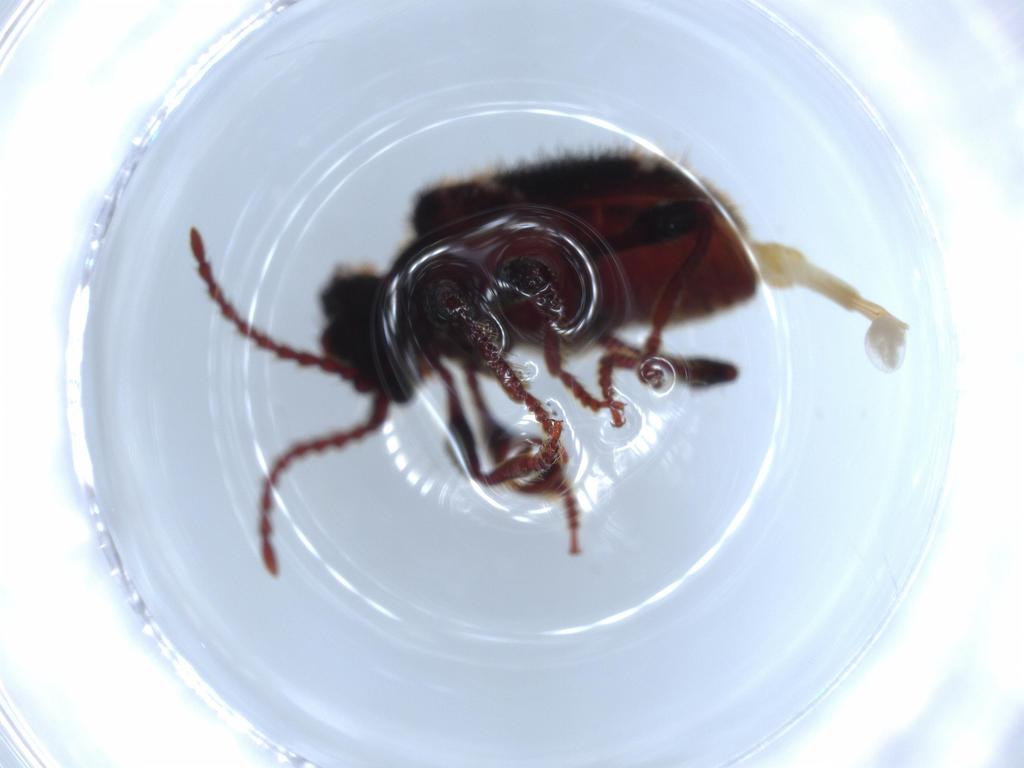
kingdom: Animalia
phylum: Arthropoda
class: Insecta
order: Coleoptera
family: Ptinidae
